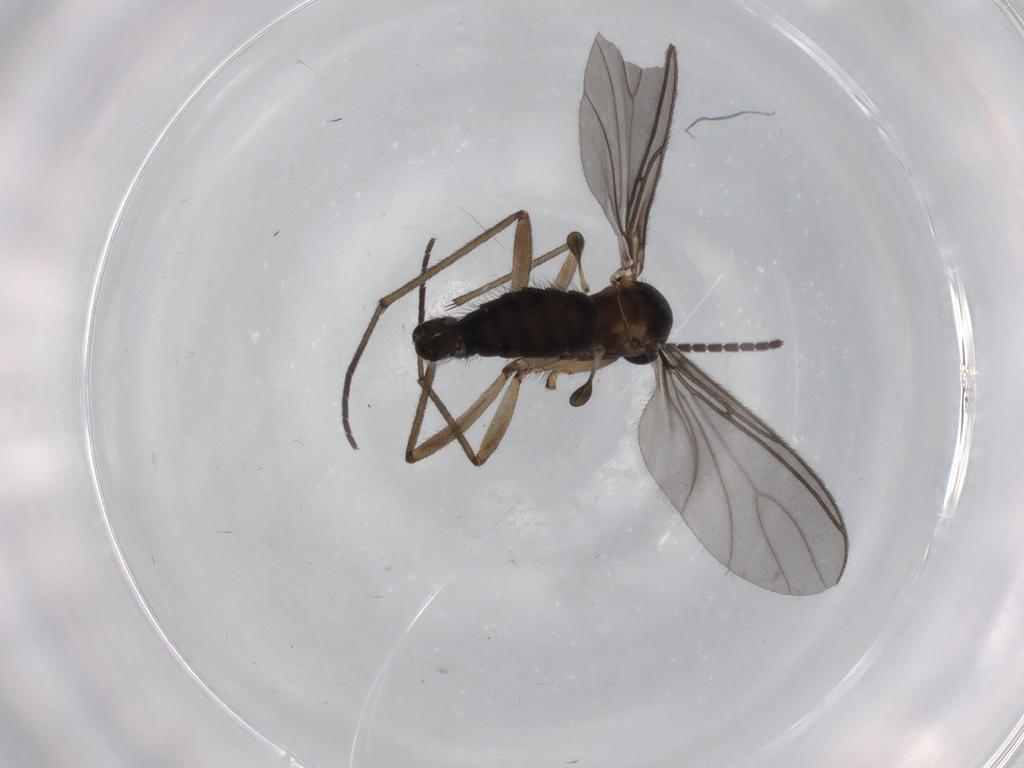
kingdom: Animalia
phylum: Arthropoda
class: Insecta
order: Diptera
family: Sciaridae
